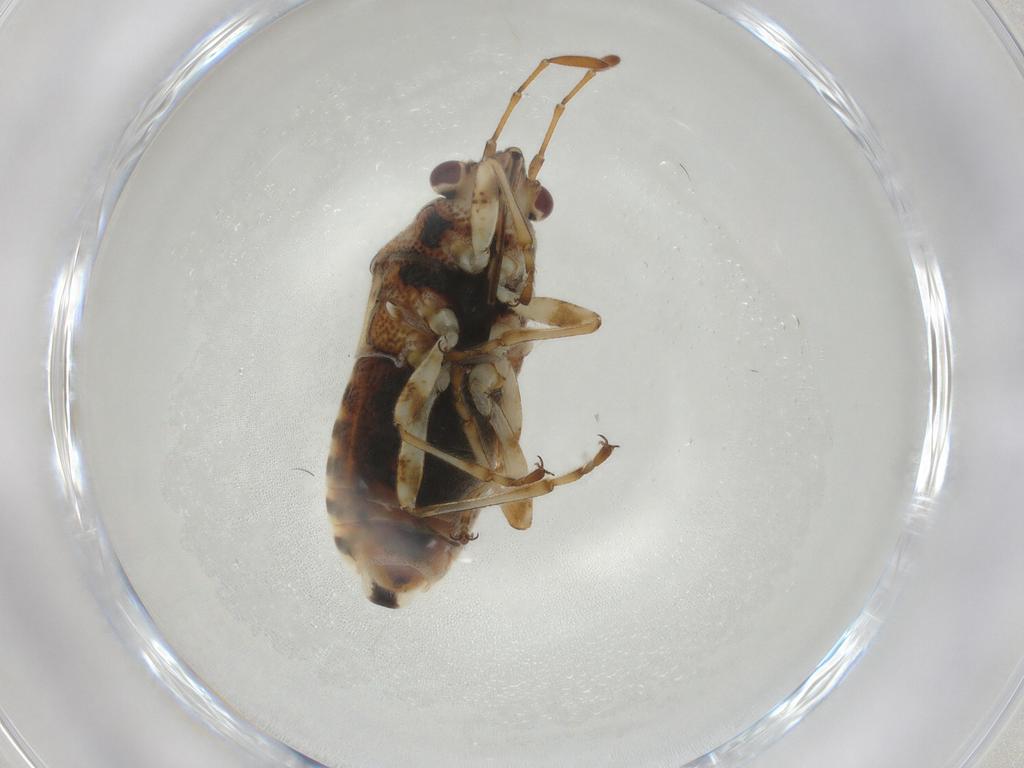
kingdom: Animalia
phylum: Arthropoda
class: Insecta
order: Hemiptera
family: Lygaeidae
